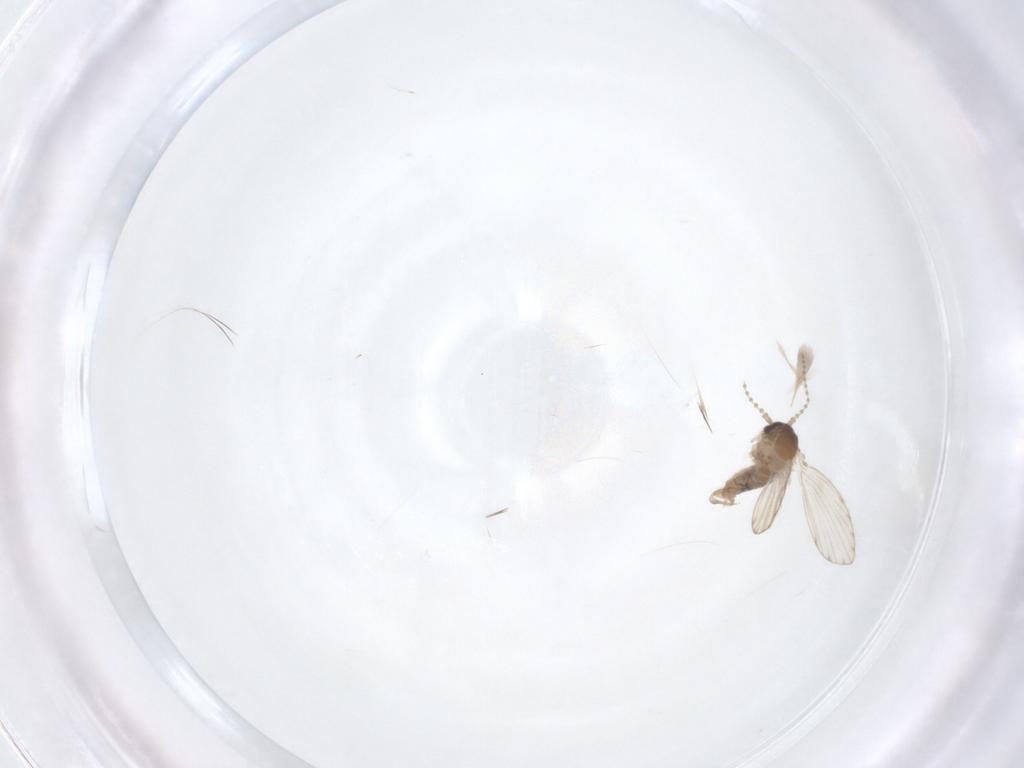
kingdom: Animalia
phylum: Arthropoda
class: Insecta
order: Diptera
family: Psychodidae
